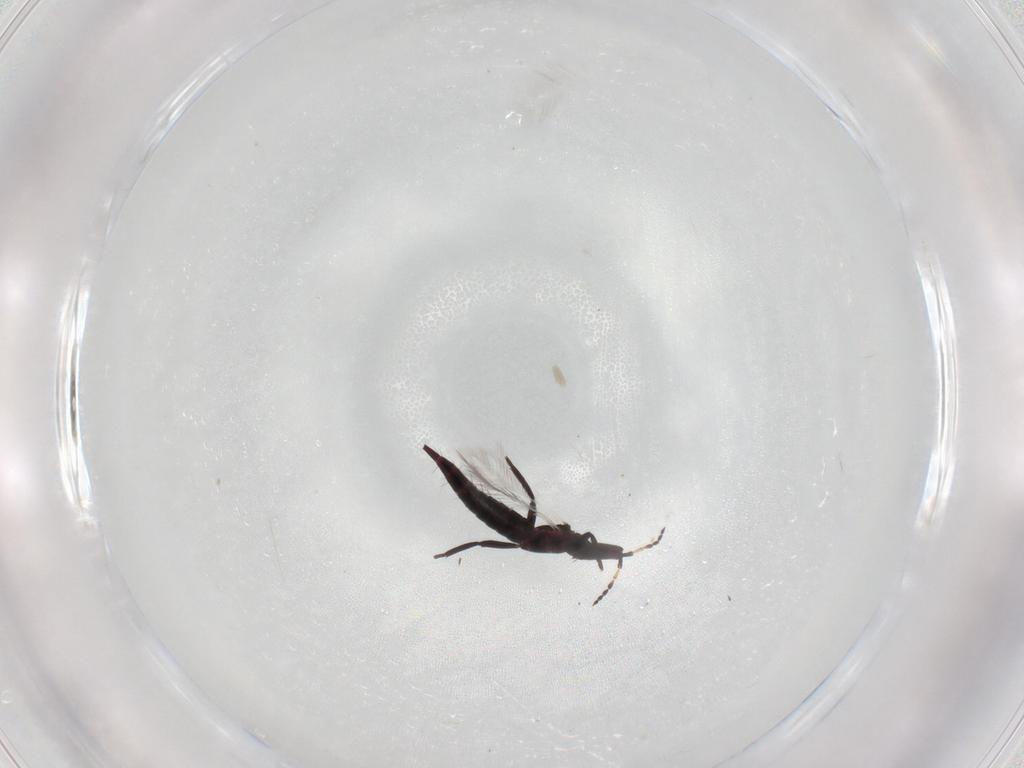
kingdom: Animalia
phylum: Arthropoda
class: Insecta
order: Thysanoptera
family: Phlaeothripidae
